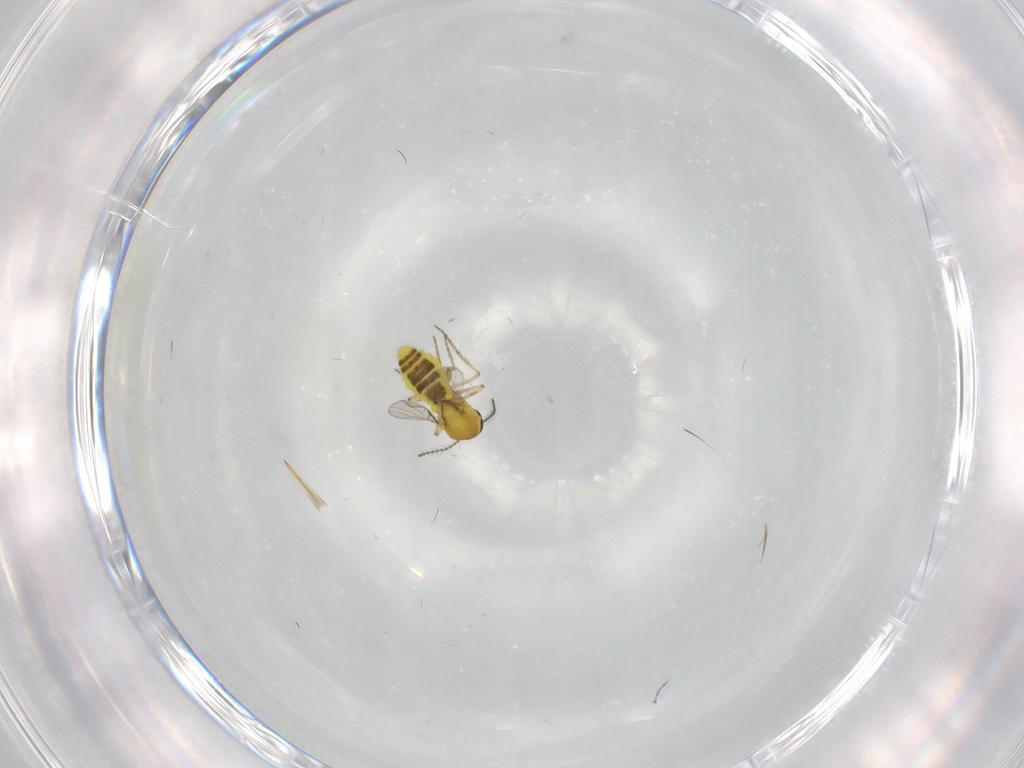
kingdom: Animalia
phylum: Arthropoda
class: Insecta
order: Diptera
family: Ceratopogonidae
